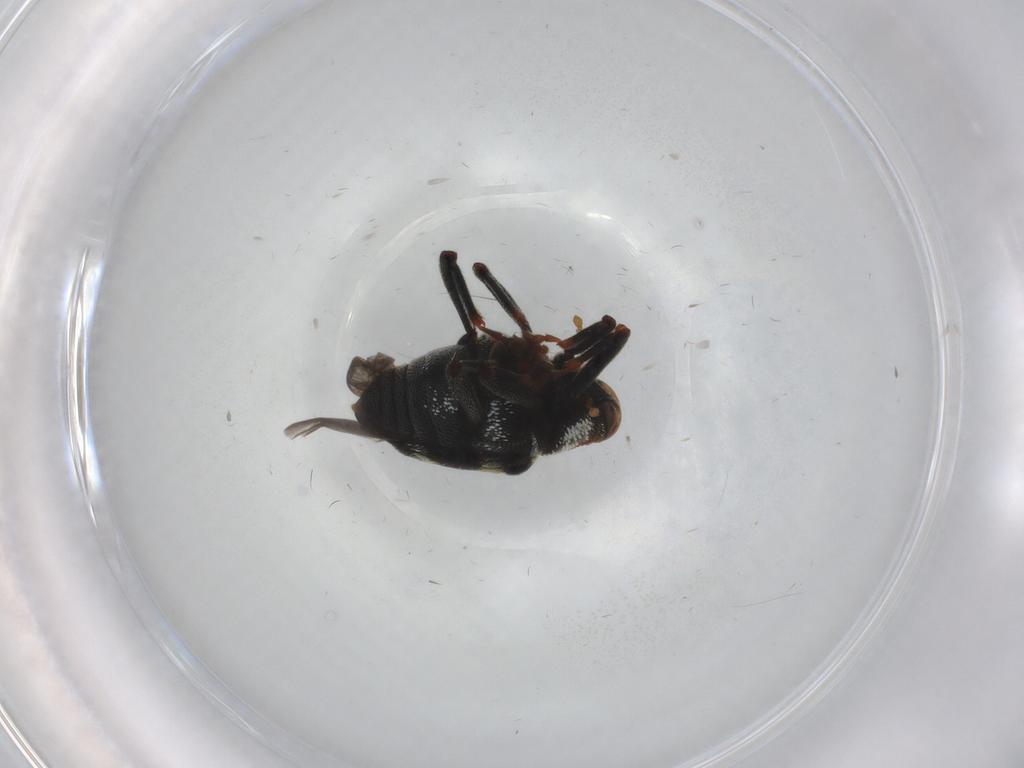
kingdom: Animalia
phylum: Arthropoda
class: Insecta
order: Coleoptera
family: Curculionidae
